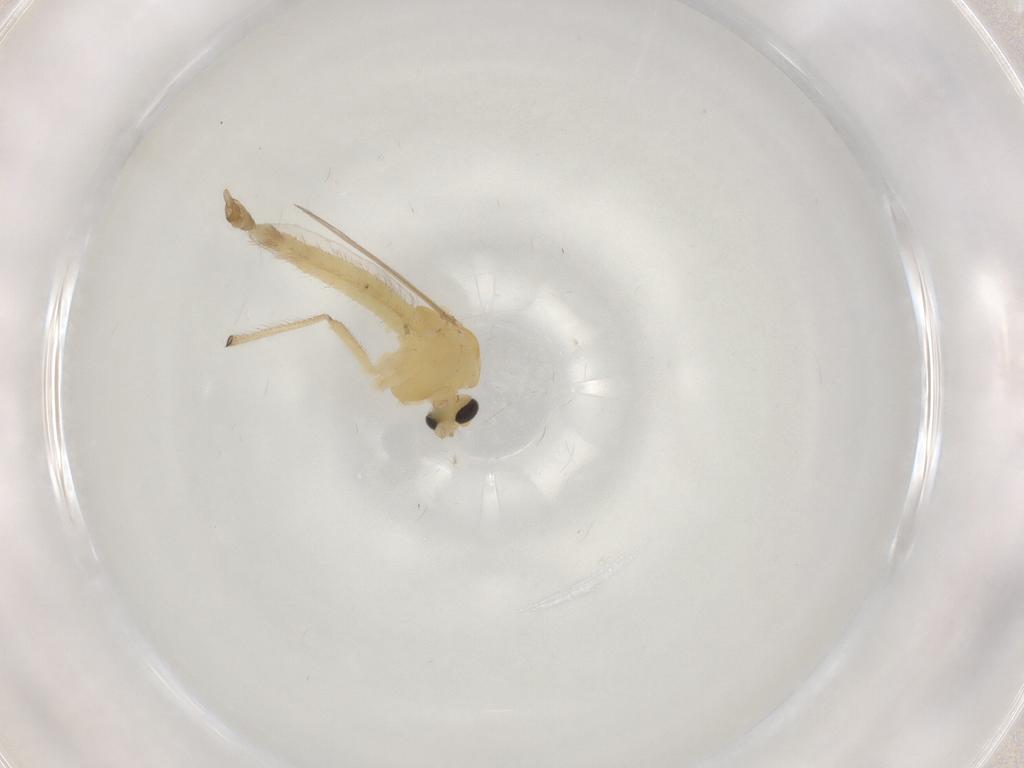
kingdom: Animalia
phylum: Arthropoda
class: Insecta
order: Diptera
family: Chironomidae
